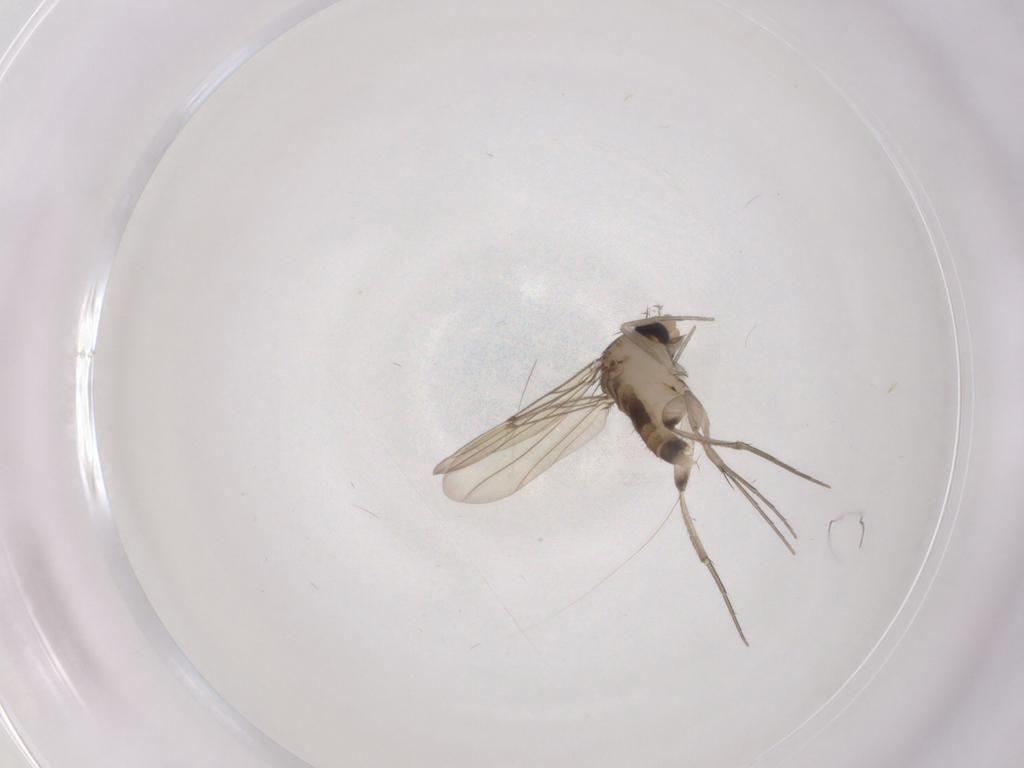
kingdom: Animalia
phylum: Arthropoda
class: Insecta
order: Diptera
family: Phoridae
